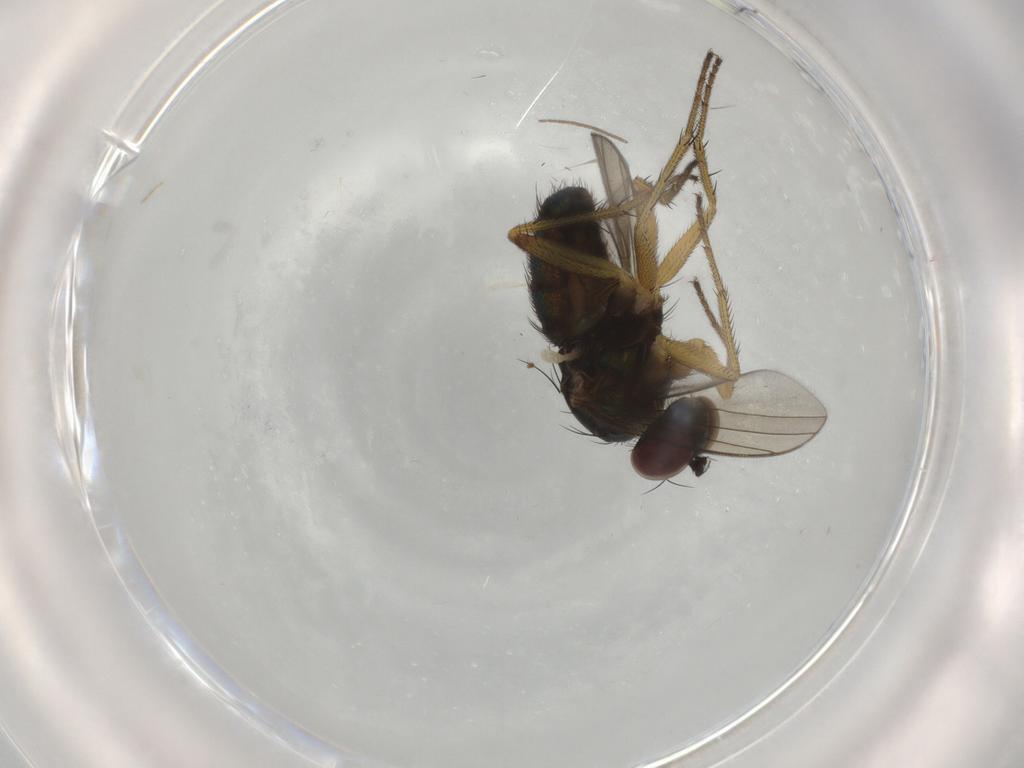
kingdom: Animalia
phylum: Arthropoda
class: Insecta
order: Diptera
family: Dolichopodidae
